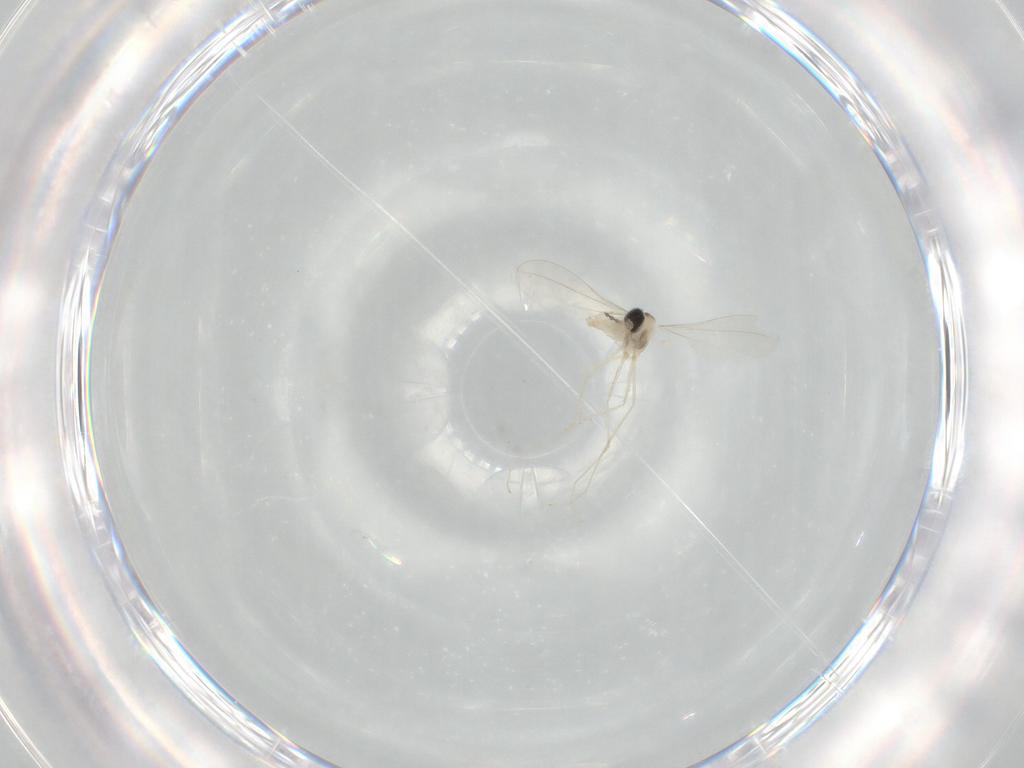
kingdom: Animalia
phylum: Arthropoda
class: Insecta
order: Diptera
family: Cecidomyiidae
